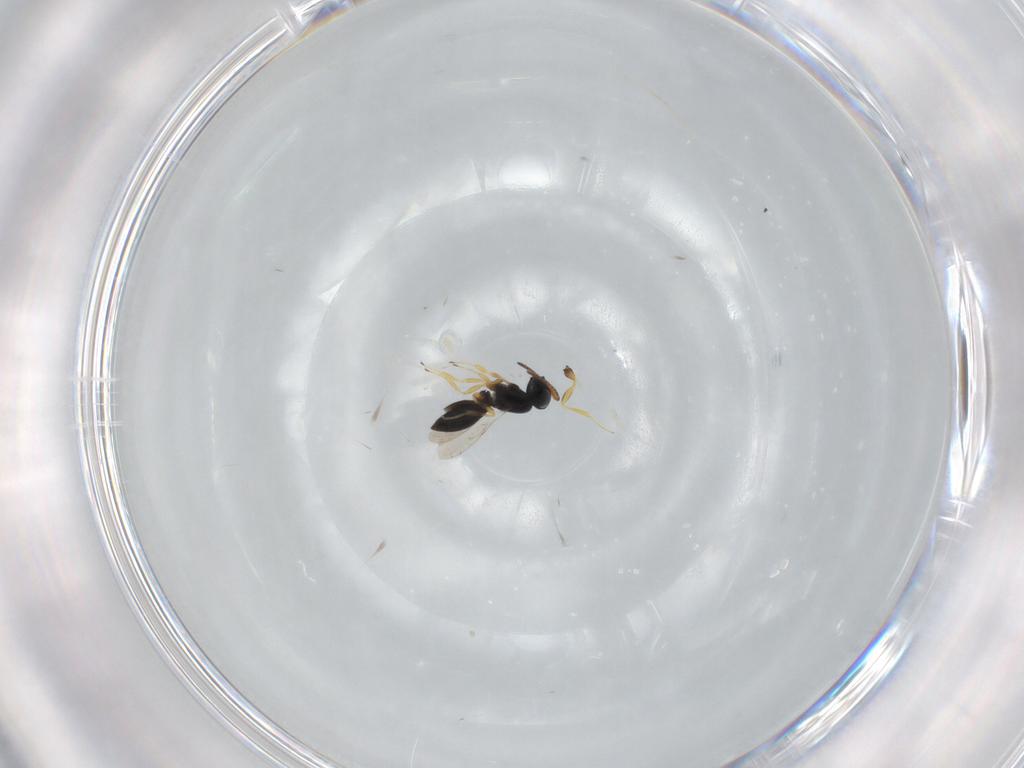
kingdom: Animalia
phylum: Arthropoda
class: Insecta
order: Hymenoptera
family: Scelionidae
